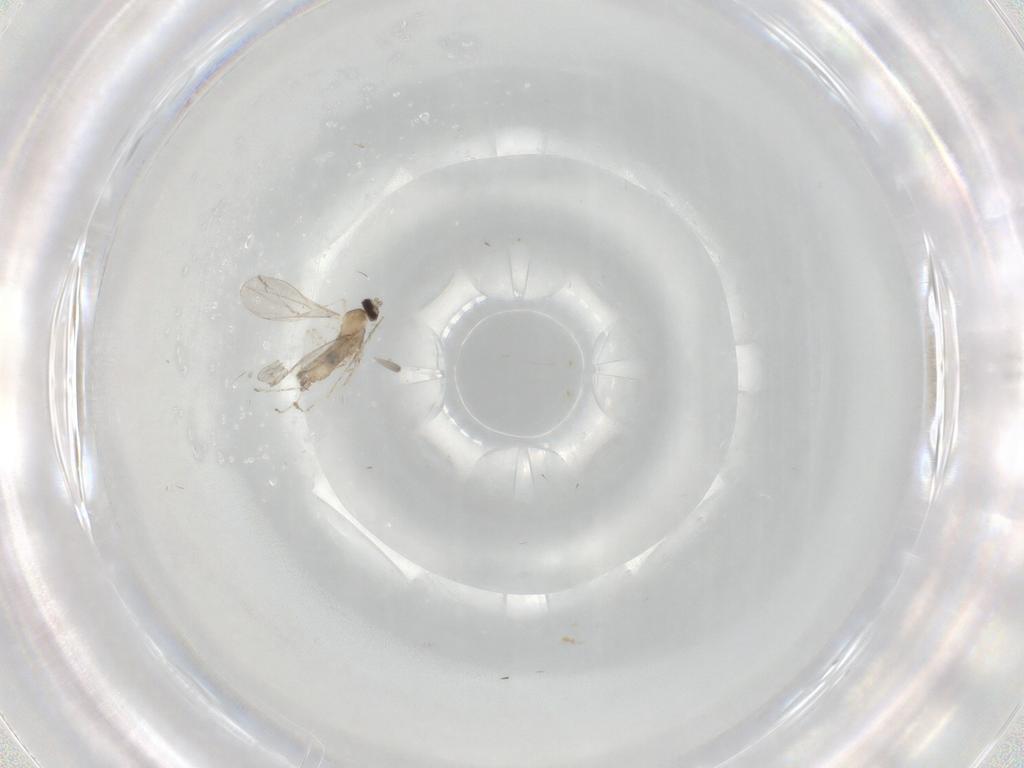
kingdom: Animalia
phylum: Arthropoda
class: Insecta
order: Diptera
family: Cecidomyiidae
